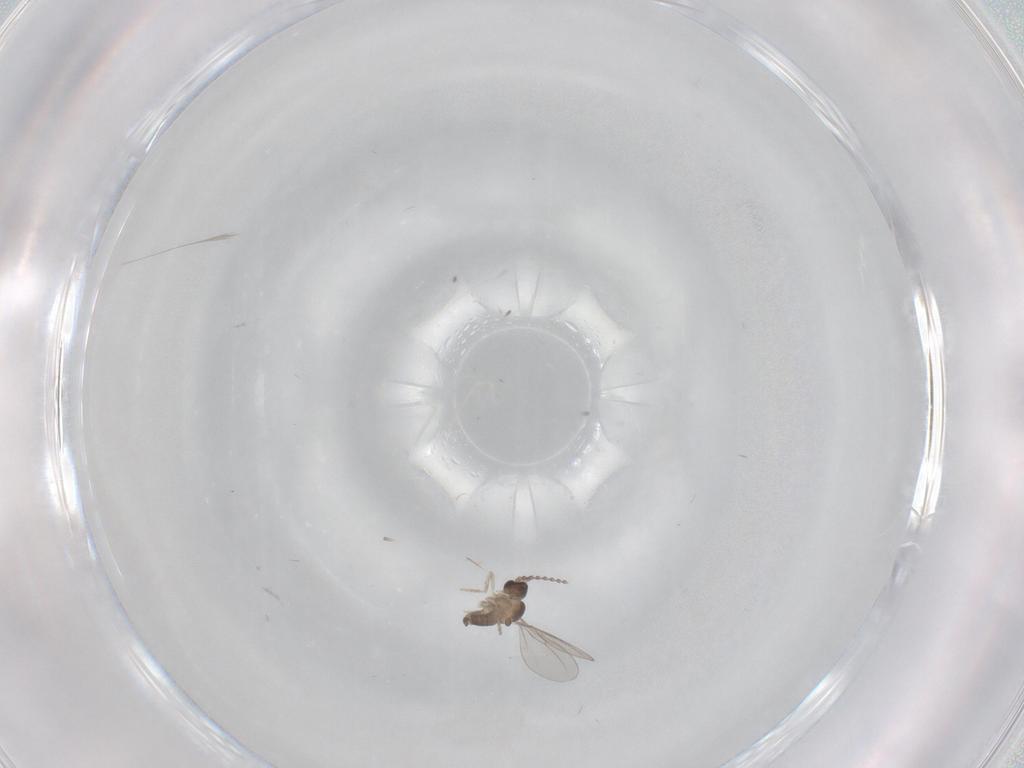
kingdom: Animalia
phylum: Arthropoda
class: Insecta
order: Diptera
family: Cecidomyiidae
